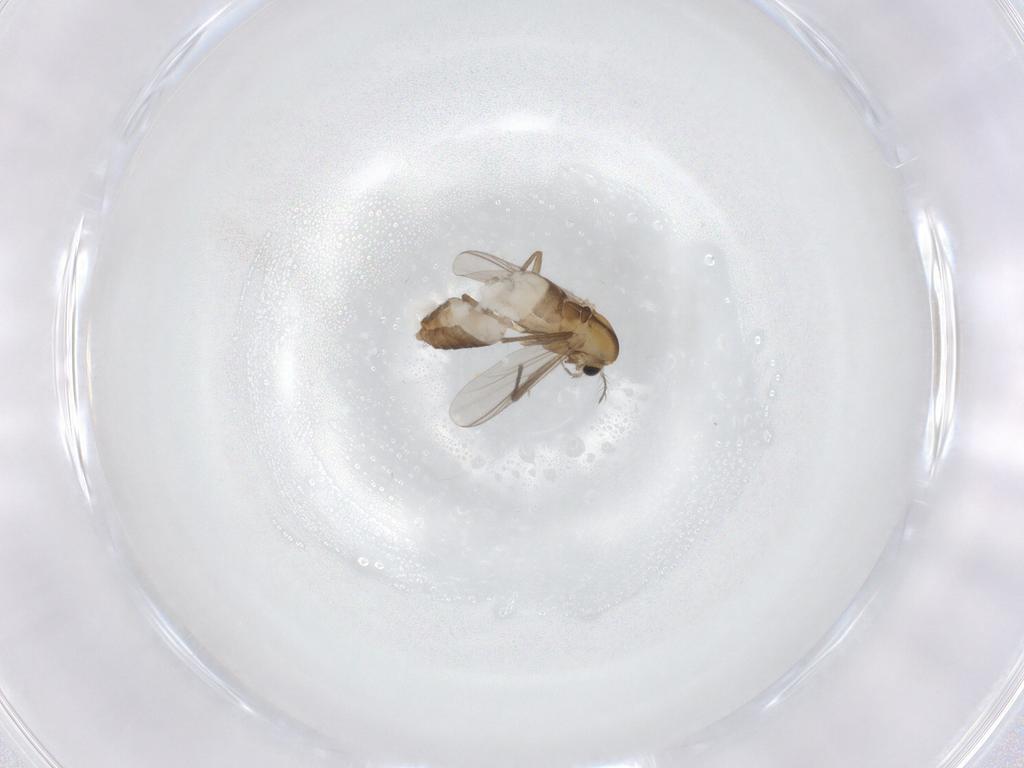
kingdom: Animalia
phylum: Arthropoda
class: Insecta
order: Diptera
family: Chironomidae
